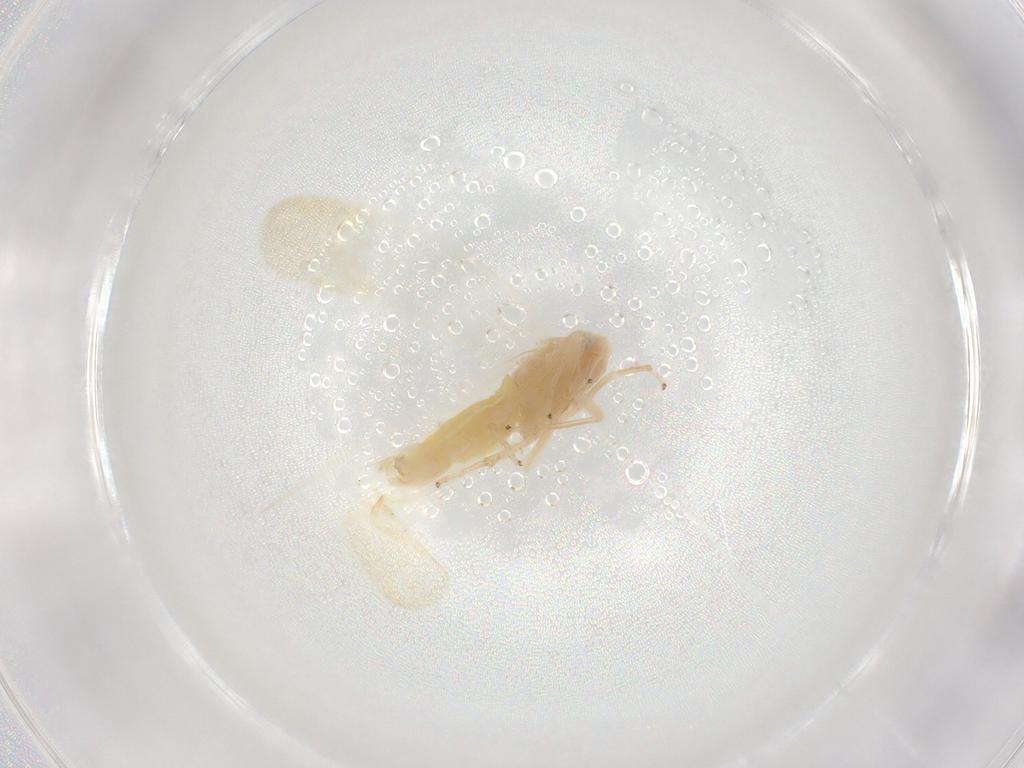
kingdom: Animalia
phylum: Arthropoda
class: Insecta
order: Hemiptera
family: Cicadellidae
